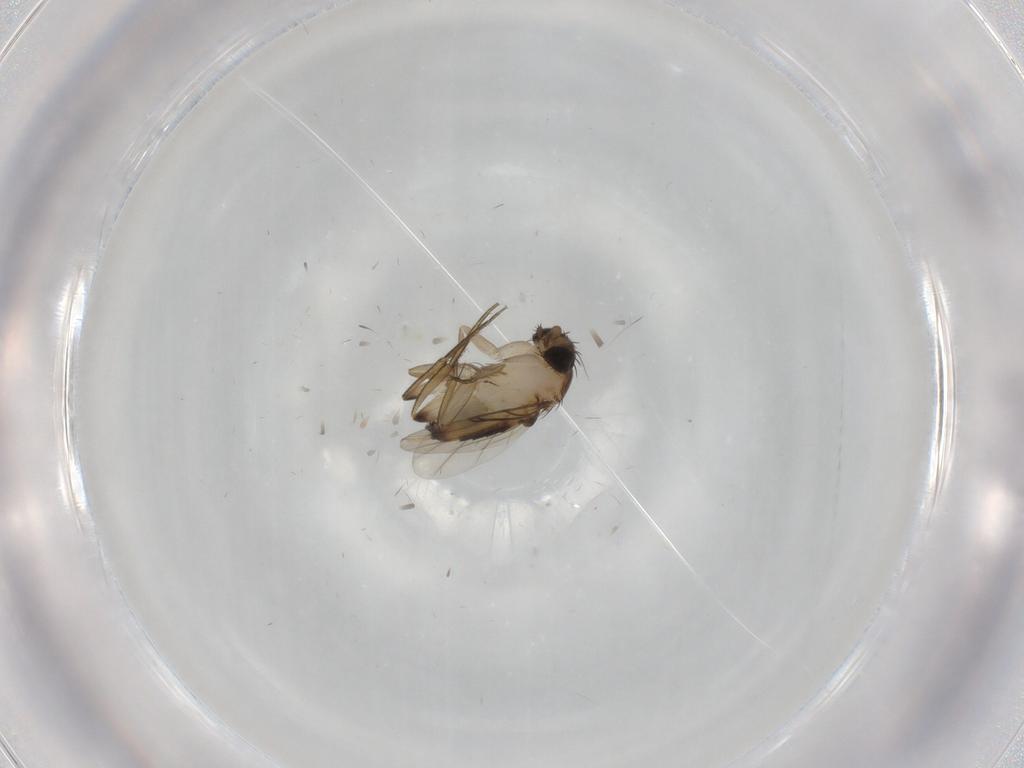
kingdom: Animalia
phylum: Arthropoda
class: Insecta
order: Diptera
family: Phoridae
